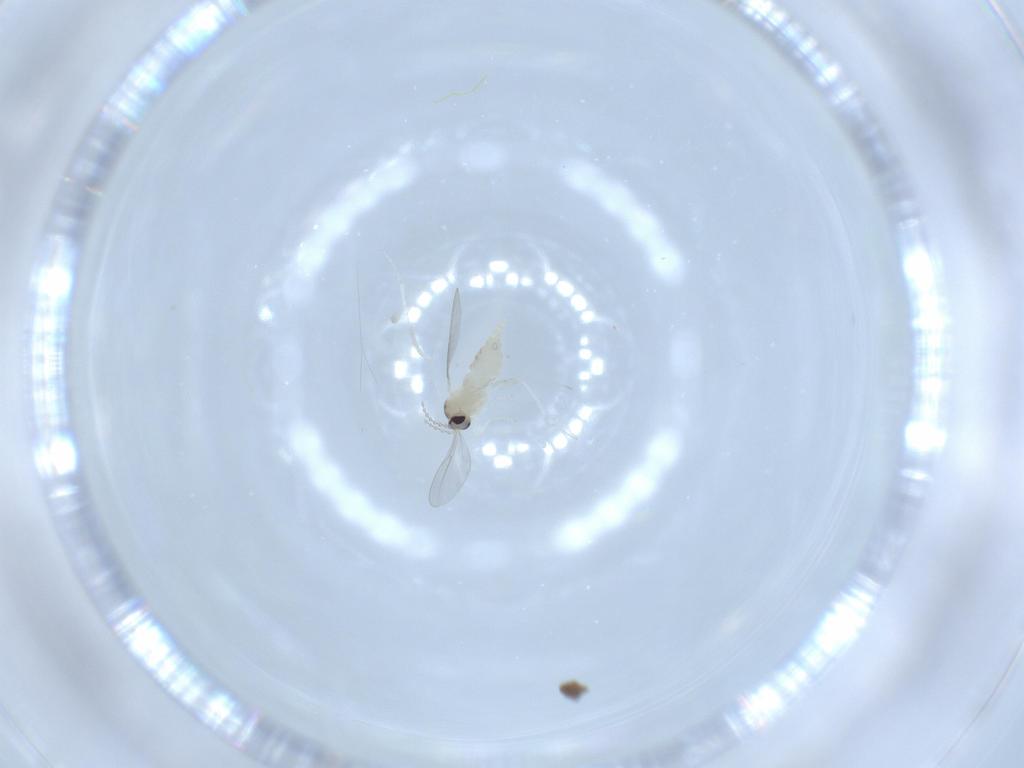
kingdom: Animalia
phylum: Arthropoda
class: Insecta
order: Diptera
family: Cecidomyiidae
